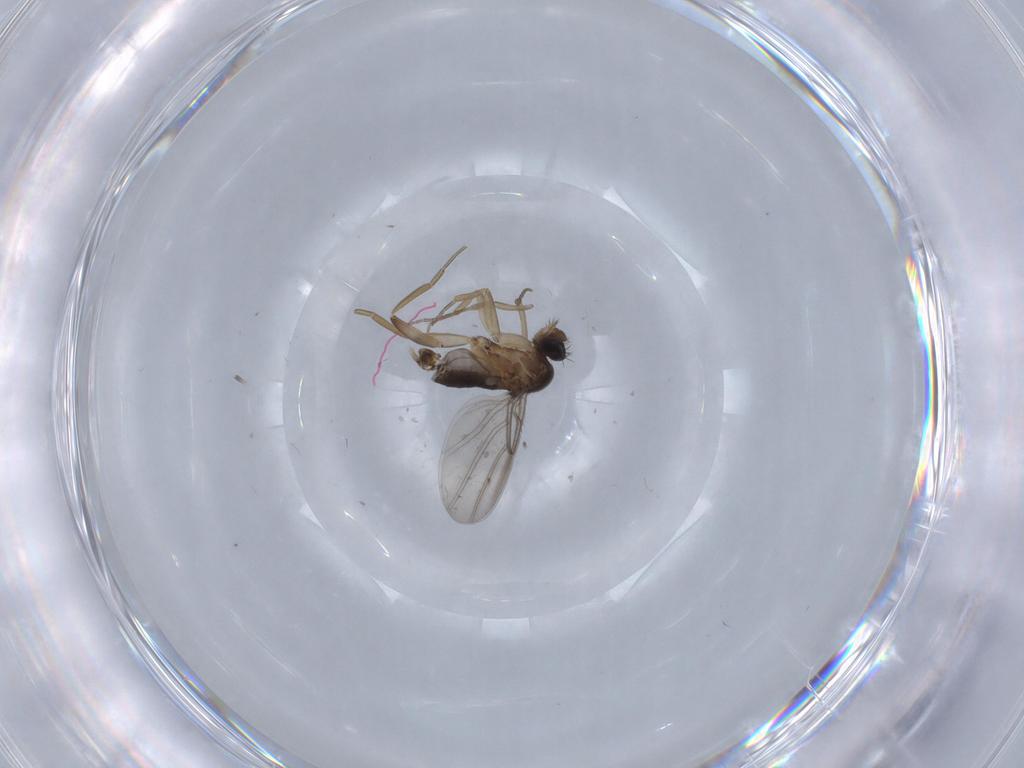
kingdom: Animalia
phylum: Arthropoda
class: Insecta
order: Diptera
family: Phoridae
